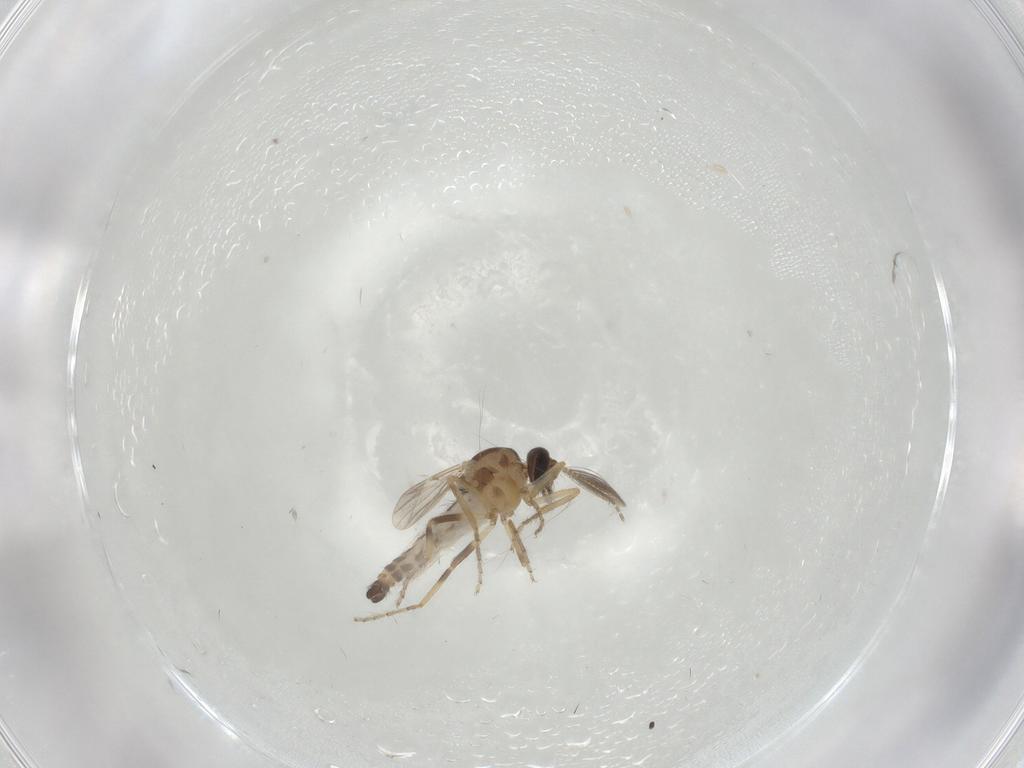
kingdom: Animalia
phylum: Arthropoda
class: Insecta
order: Diptera
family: Ceratopogonidae
